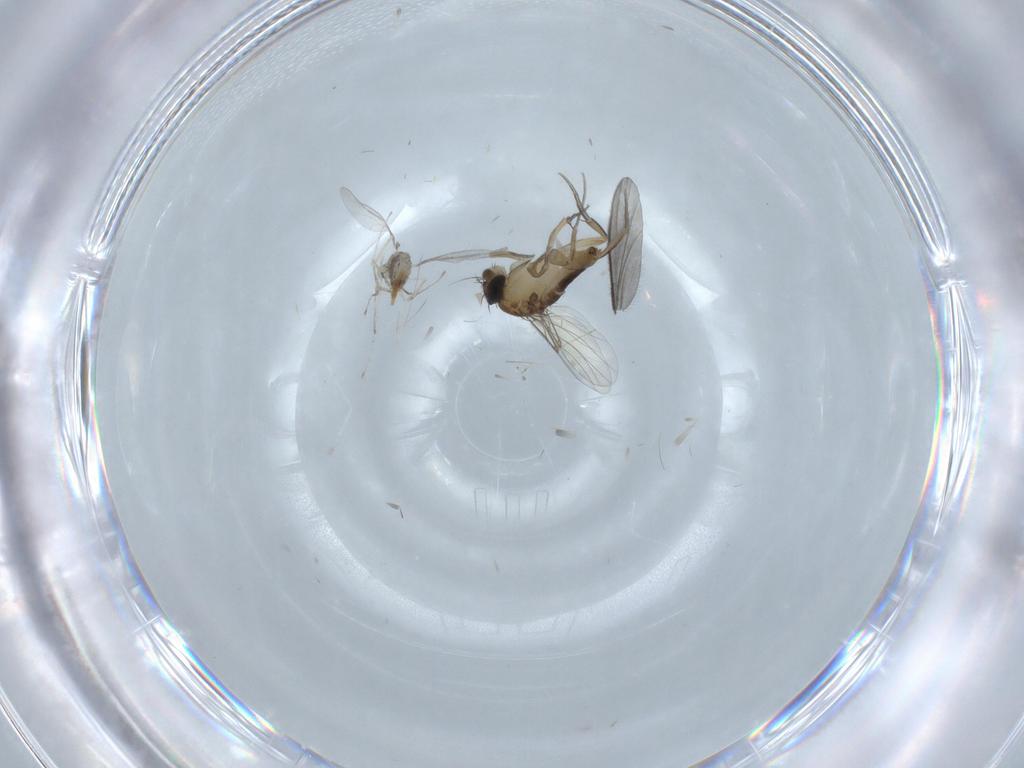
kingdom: Animalia
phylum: Arthropoda
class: Insecta
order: Diptera
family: Phoridae
